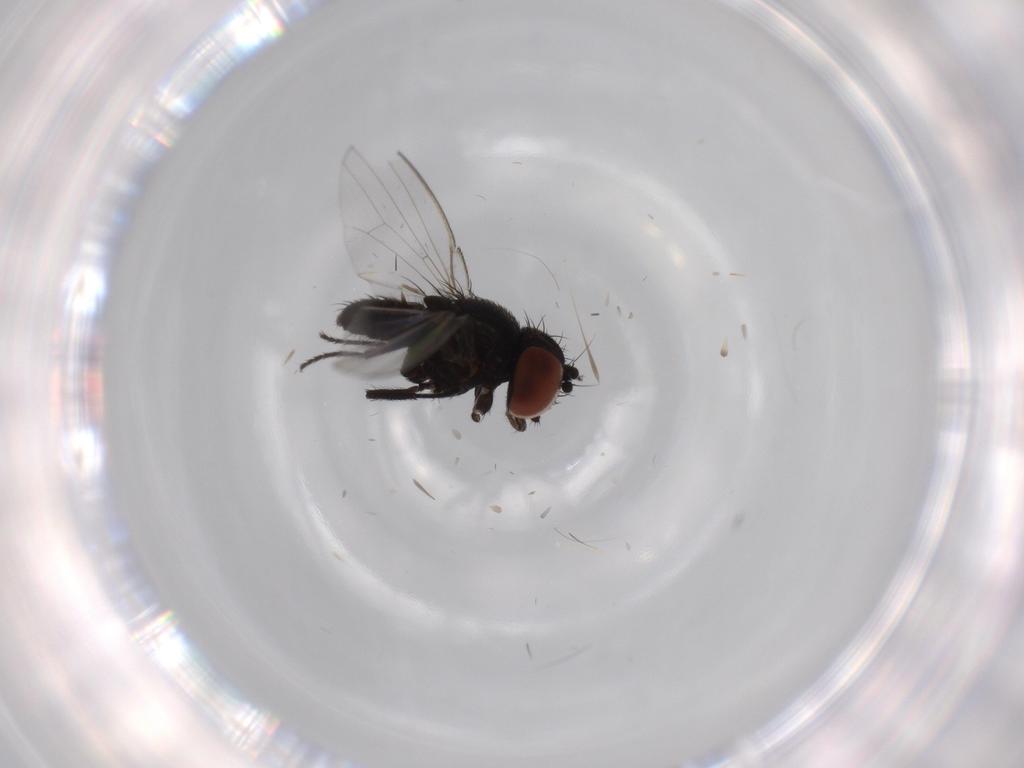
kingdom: Animalia
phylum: Arthropoda
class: Insecta
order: Diptera
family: Milichiidae
